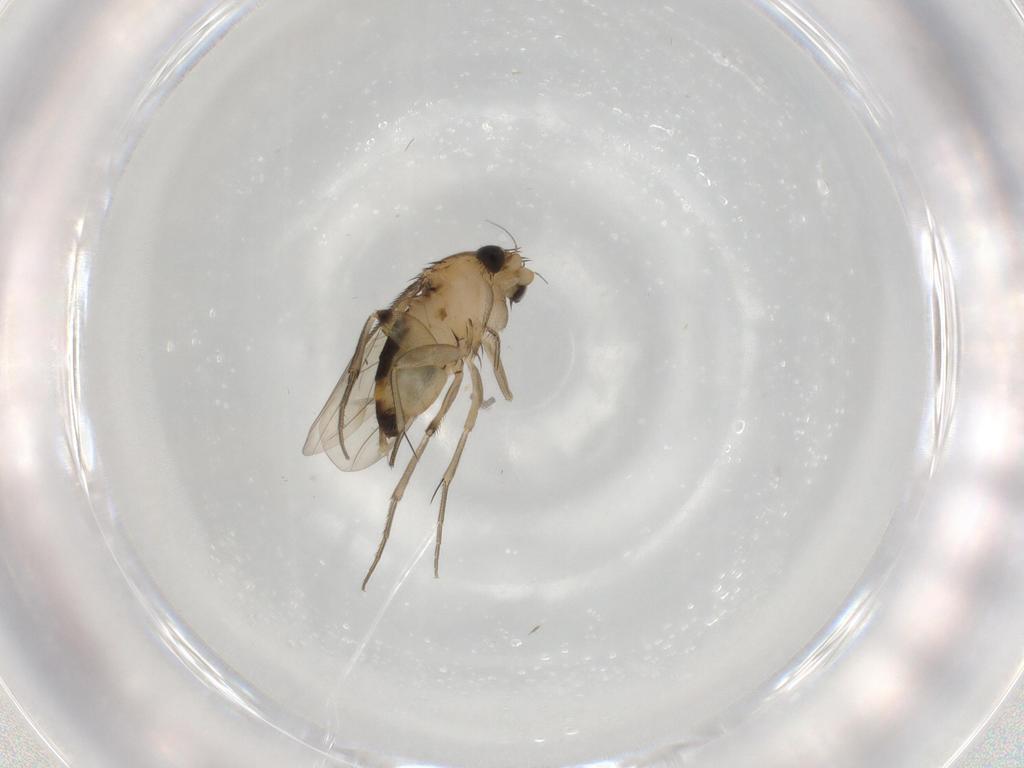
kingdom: Animalia
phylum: Arthropoda
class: Insecta
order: Diptera
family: Phoridae
